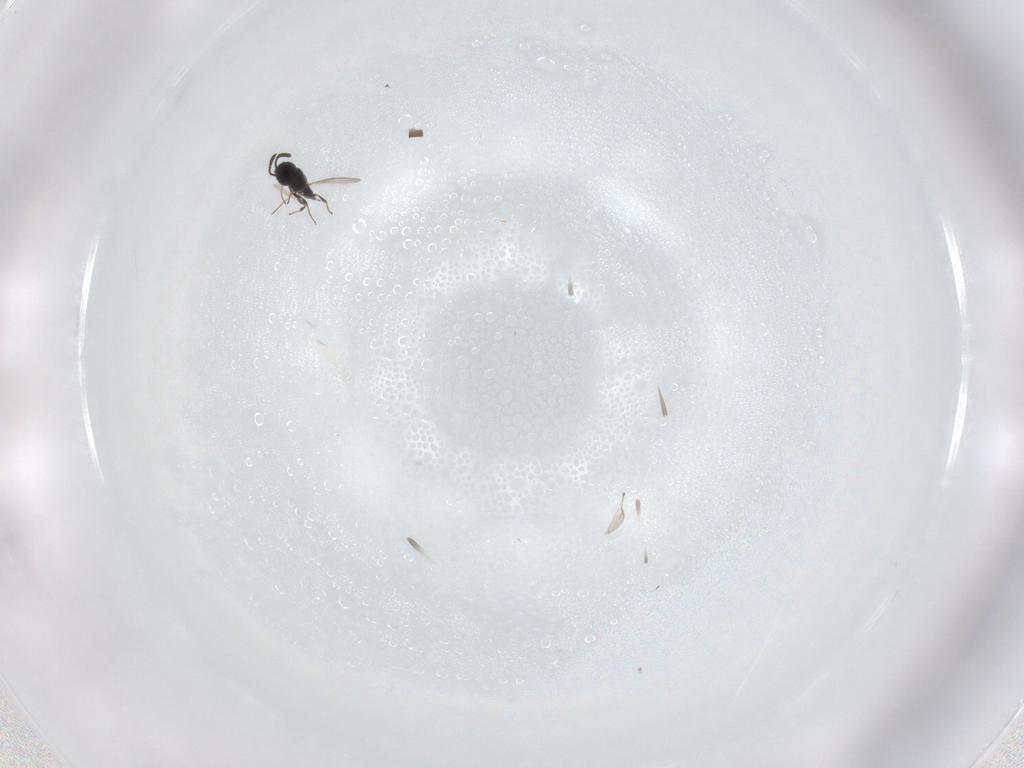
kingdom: Animalia
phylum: Arthropoda
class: Insecta
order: Hymenoptera
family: Scelionidae
